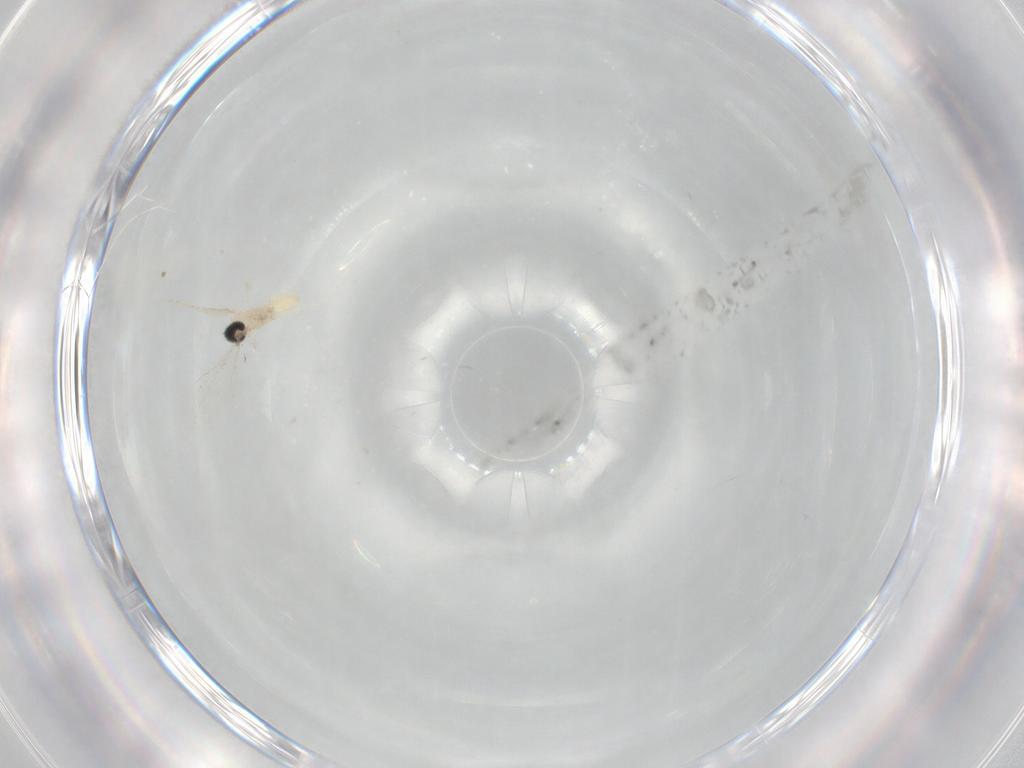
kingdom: Animalia
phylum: Arthropoda
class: Insecta
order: Diptera
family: Cecidomyiidae
